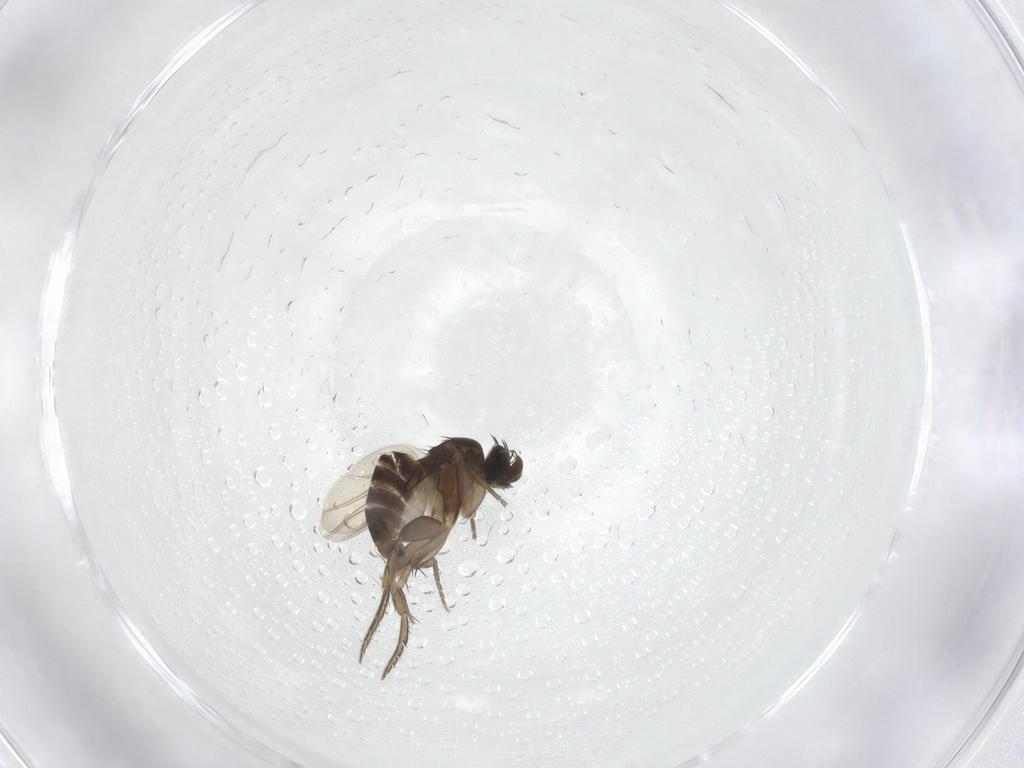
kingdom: Animalia
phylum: Arthropoda
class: Insecta
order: Diptera
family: Phoridae
